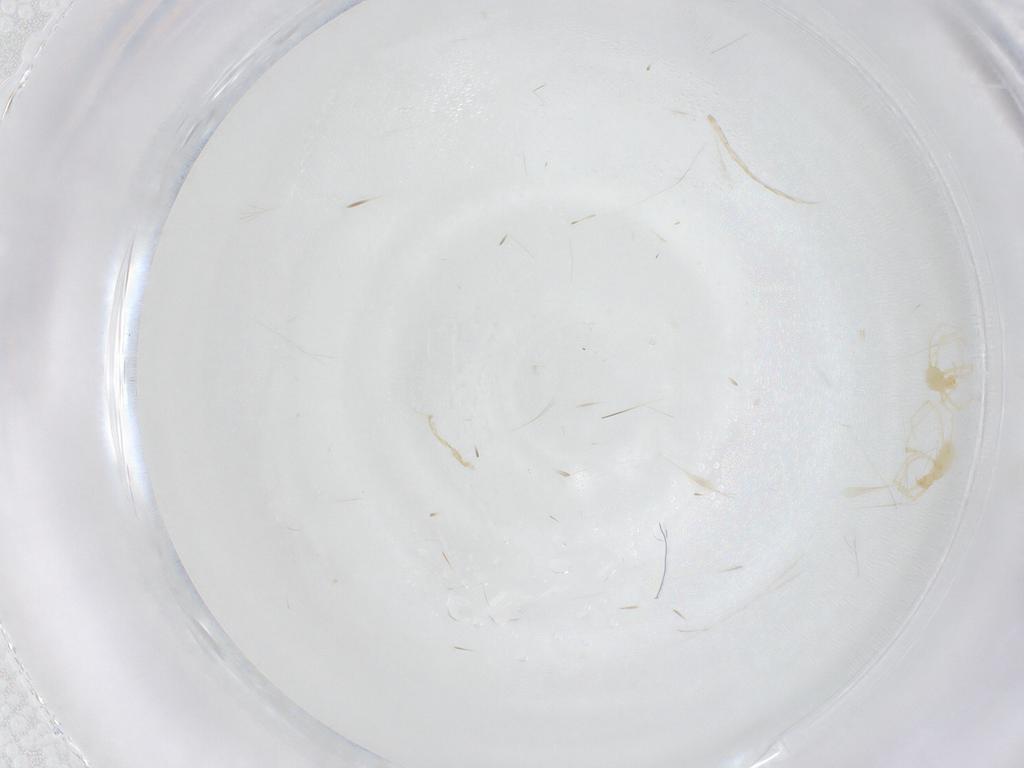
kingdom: Animalia
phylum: Arthropoda
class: Arachnida
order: Trombidiformes
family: Erythraeidae
